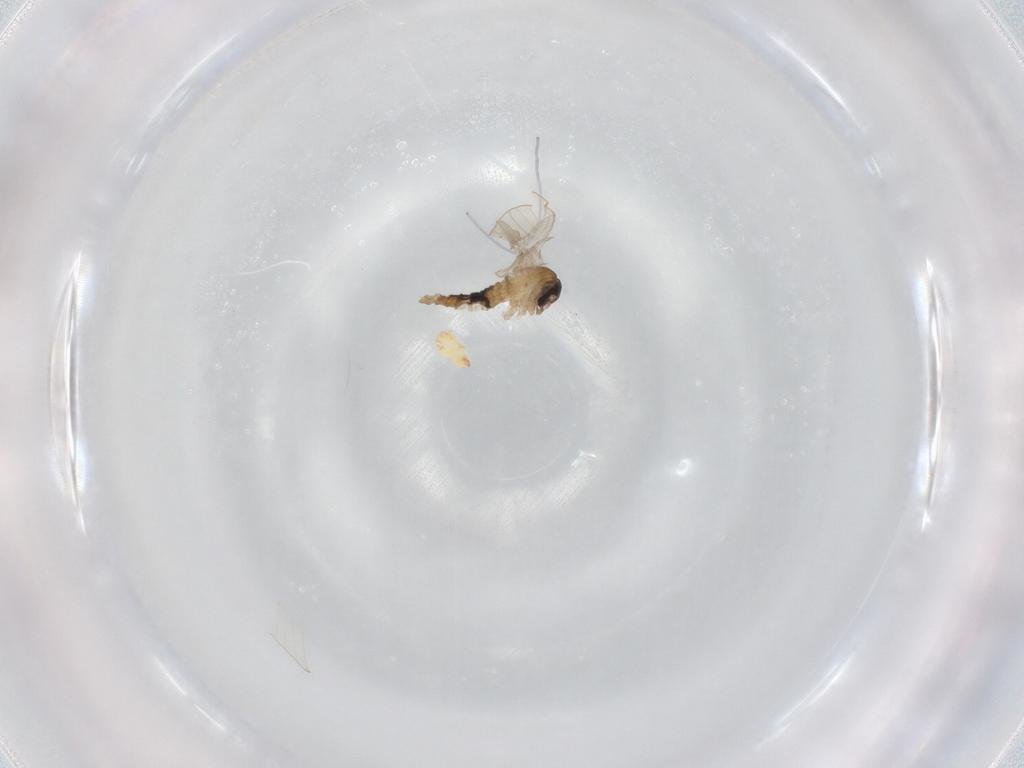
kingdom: Animalia
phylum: Arthropoda
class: Insecta
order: Diptera
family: Psychodidae
